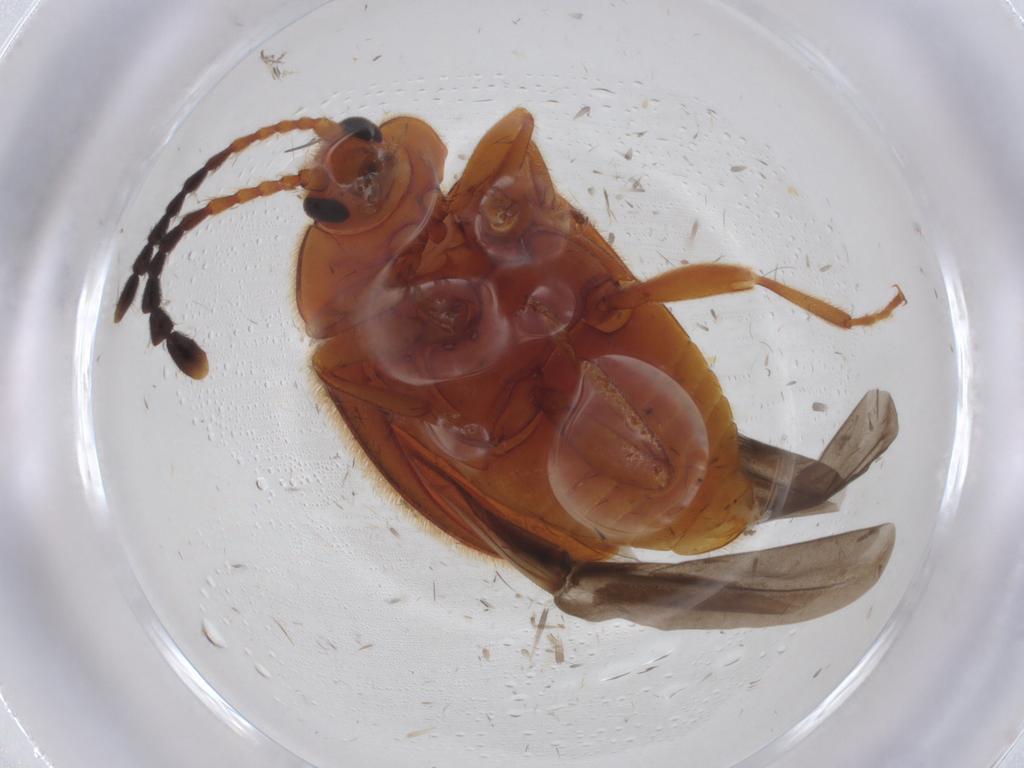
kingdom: Animalia
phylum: Arthropoda
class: Insecta
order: Coleoptera
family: Endomychidae
